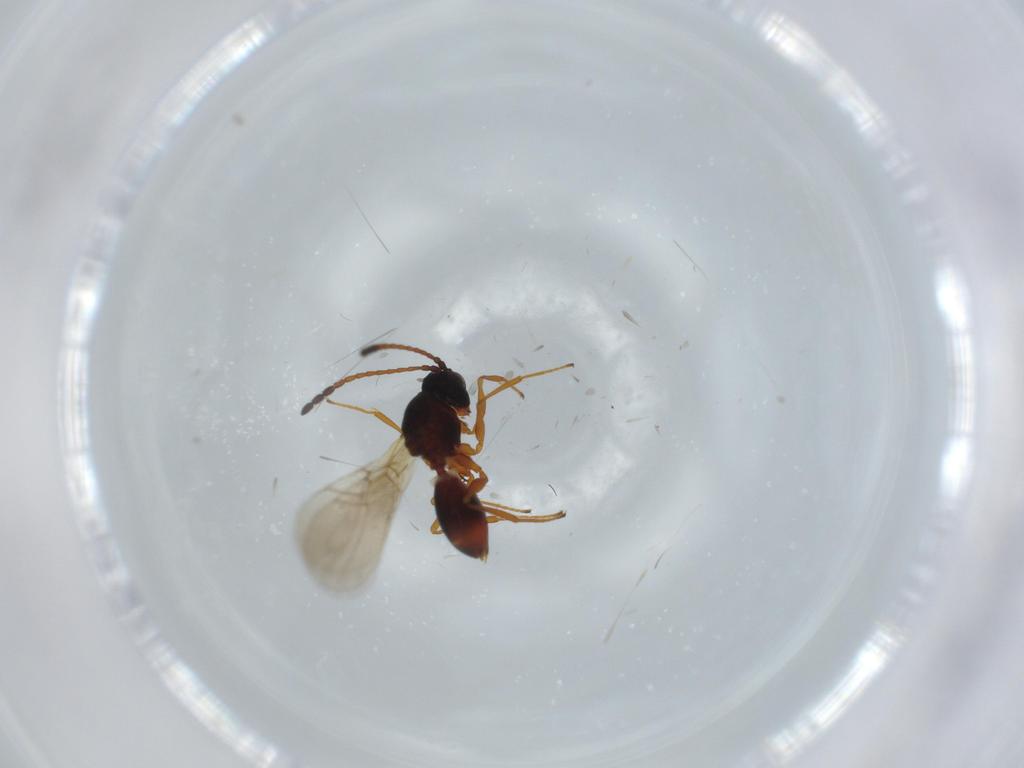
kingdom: Animalia
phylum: Arthropoda
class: Insecta
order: Hymenoptera
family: Figitidae
